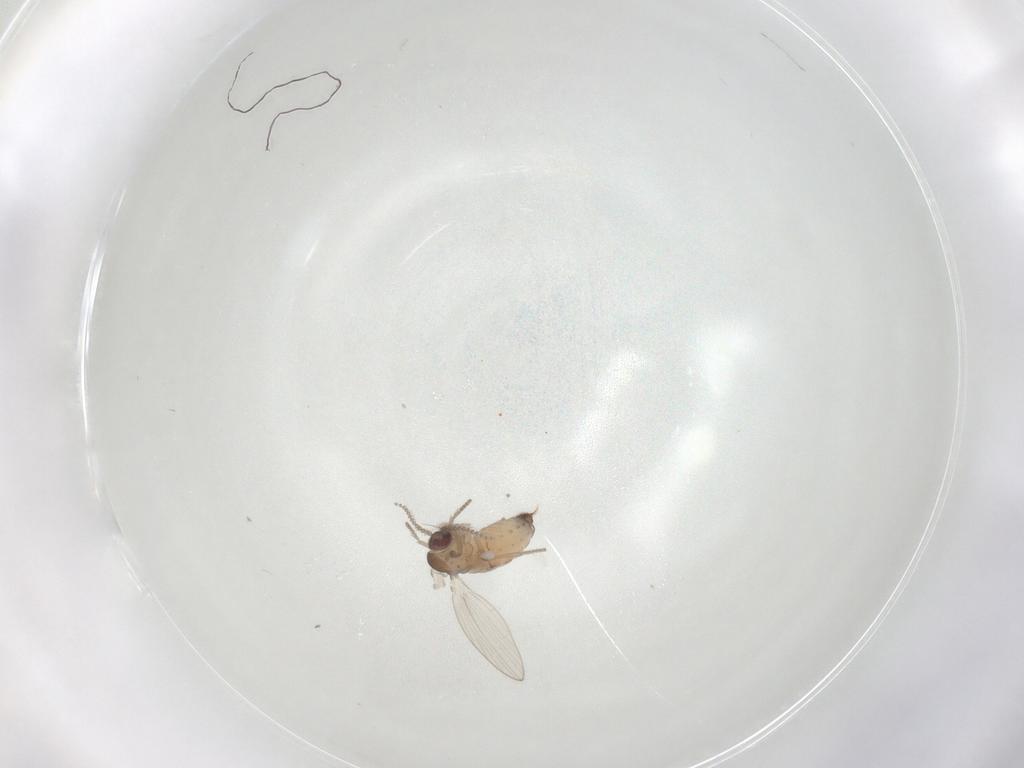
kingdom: Animalia
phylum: Arthropoda
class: Insecta
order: Diptera
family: Psychodidae
